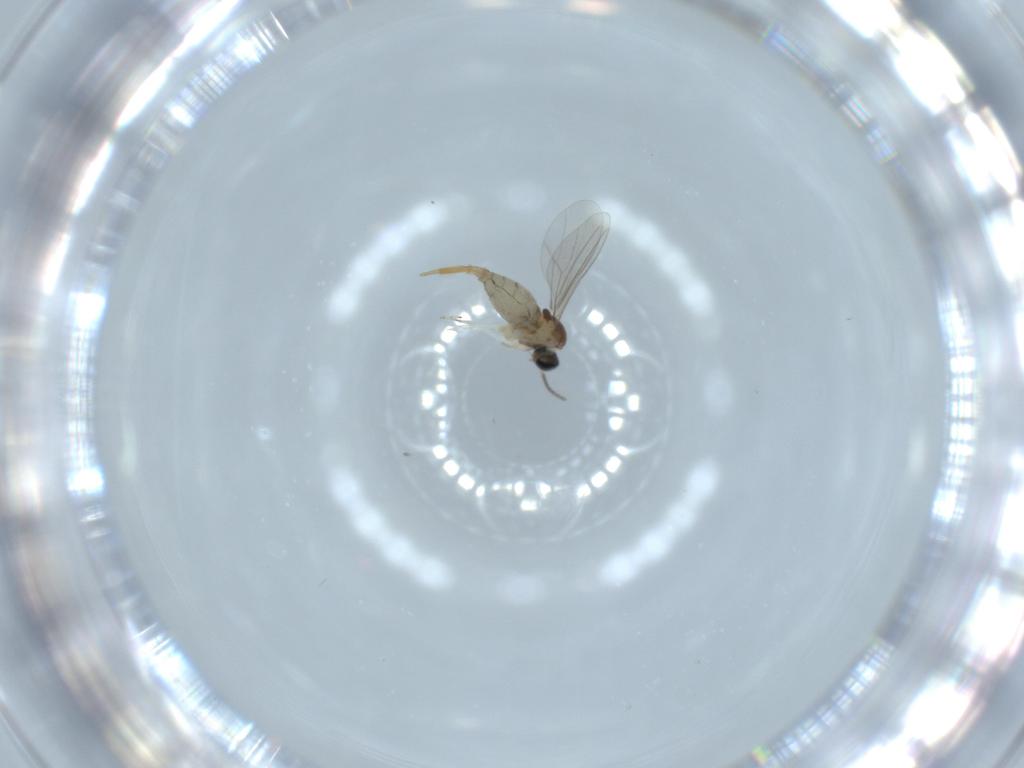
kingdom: Animalia
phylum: Arthropoda
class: Insecta
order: Diptera
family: Cecidomyiidae
